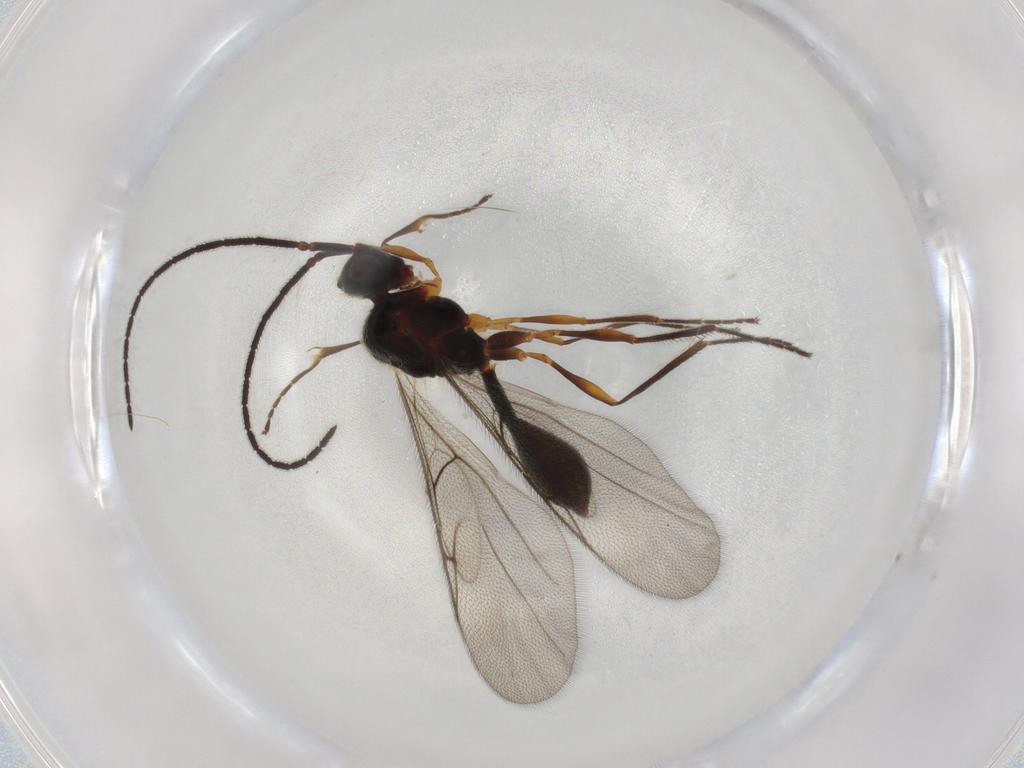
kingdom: Animalia
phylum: Arthropoda
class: Insecta
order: Hymenoptera
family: Diapriidae
